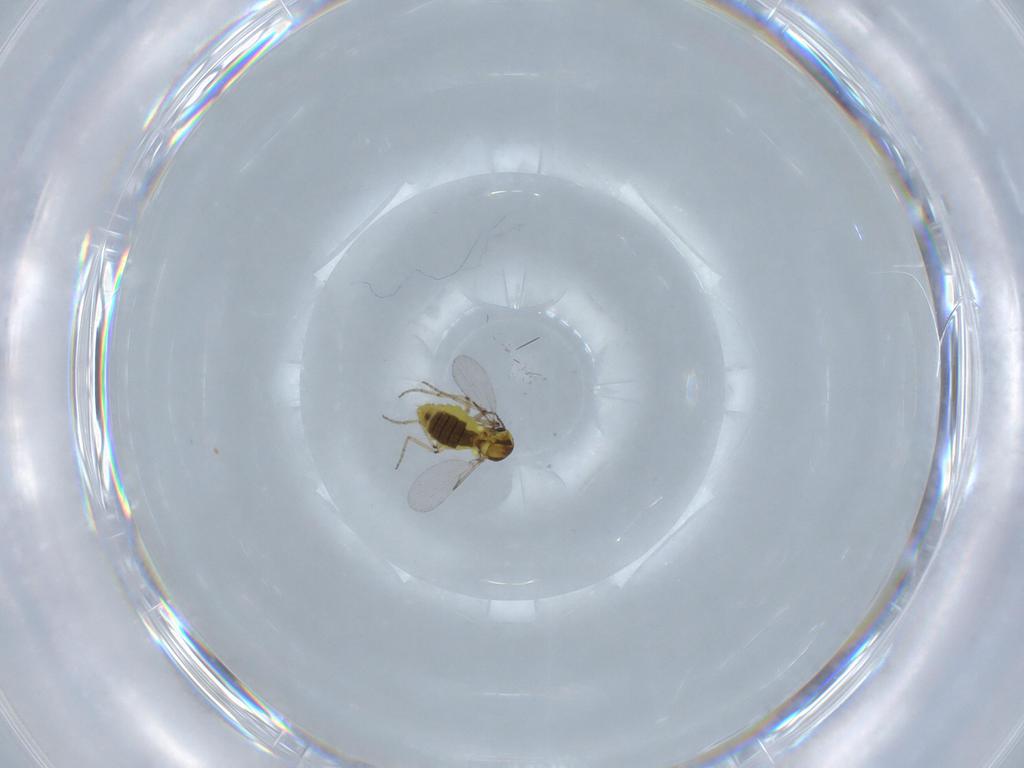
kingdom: Animalia
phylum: Arthropoda
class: Insecta
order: Diptera
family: Ceratopogonidae
